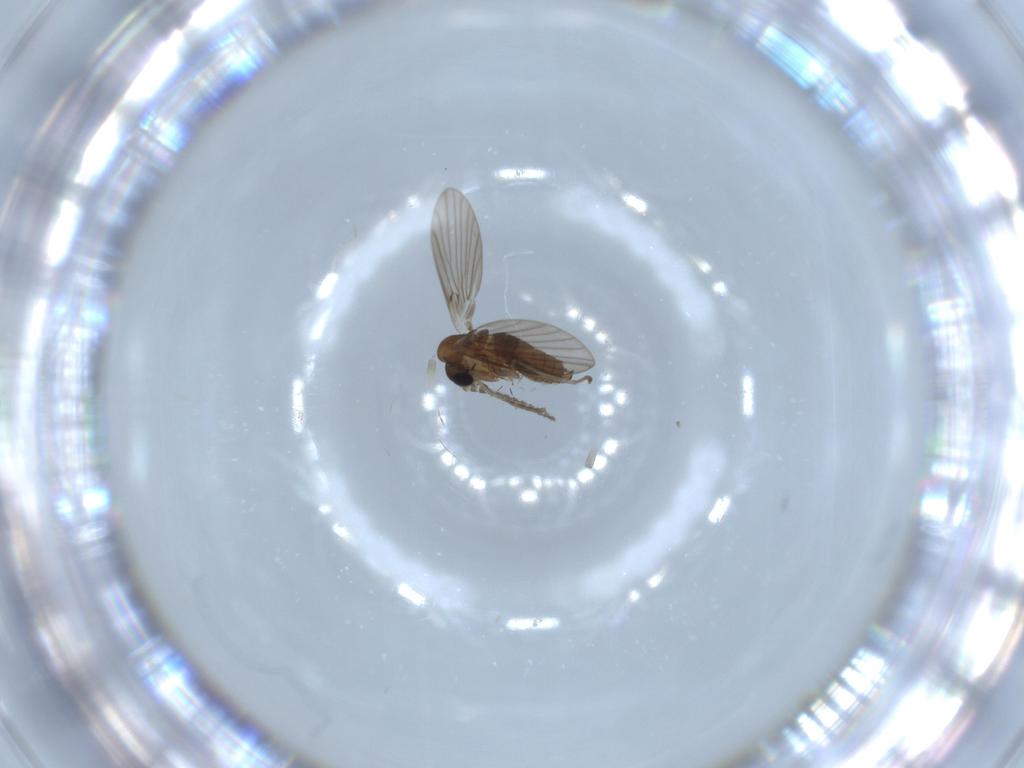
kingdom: Animalia
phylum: Arthropoda
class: Insecta
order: Diptera
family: Psychodidae
